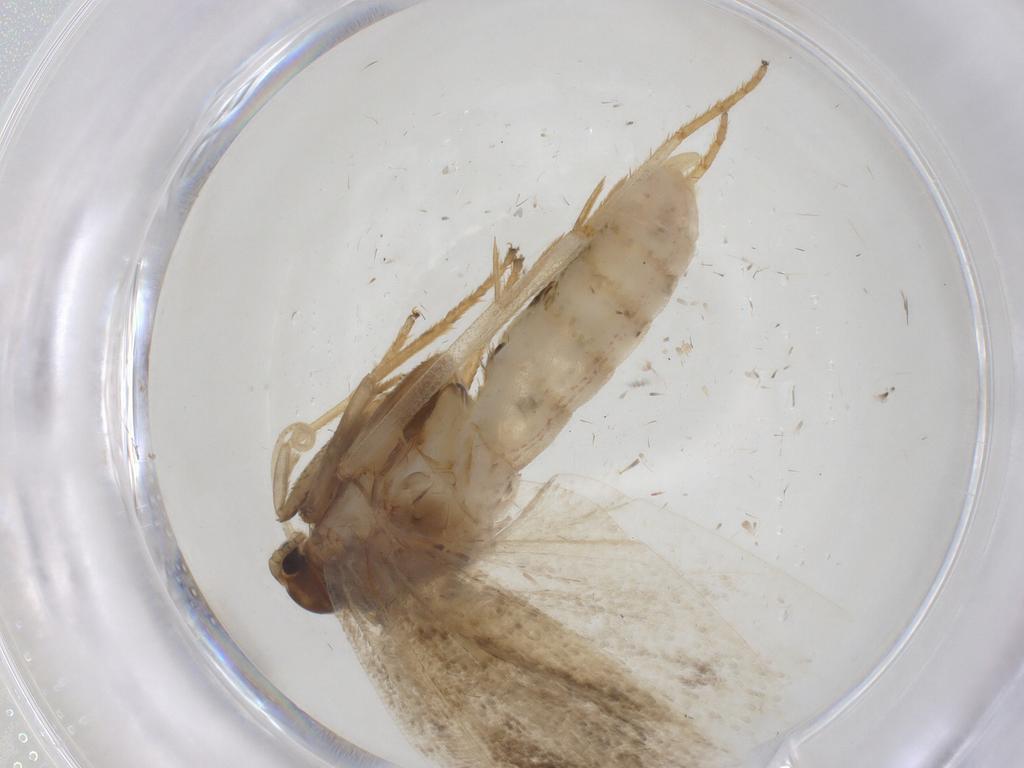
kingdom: Animalia
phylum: Arthropoda
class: Insecta
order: Lepidoptera
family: Depressariidae
